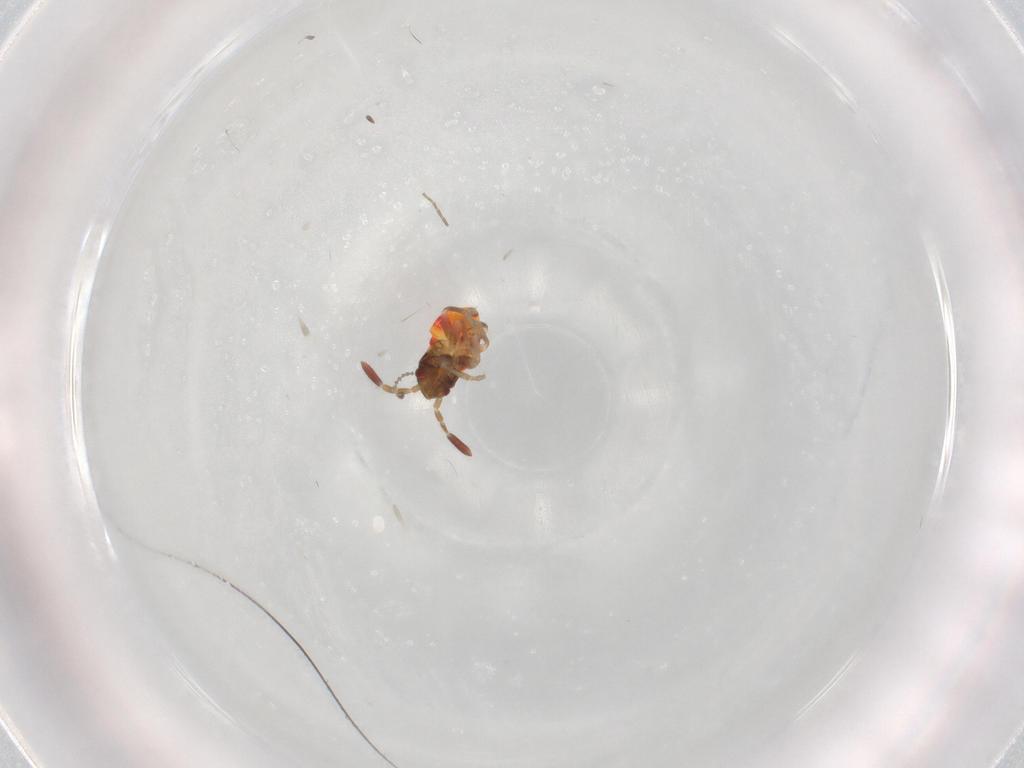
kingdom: Animalia
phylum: Arthropoda
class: Insecta
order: Hemiptera
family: Rhyparochromidae
